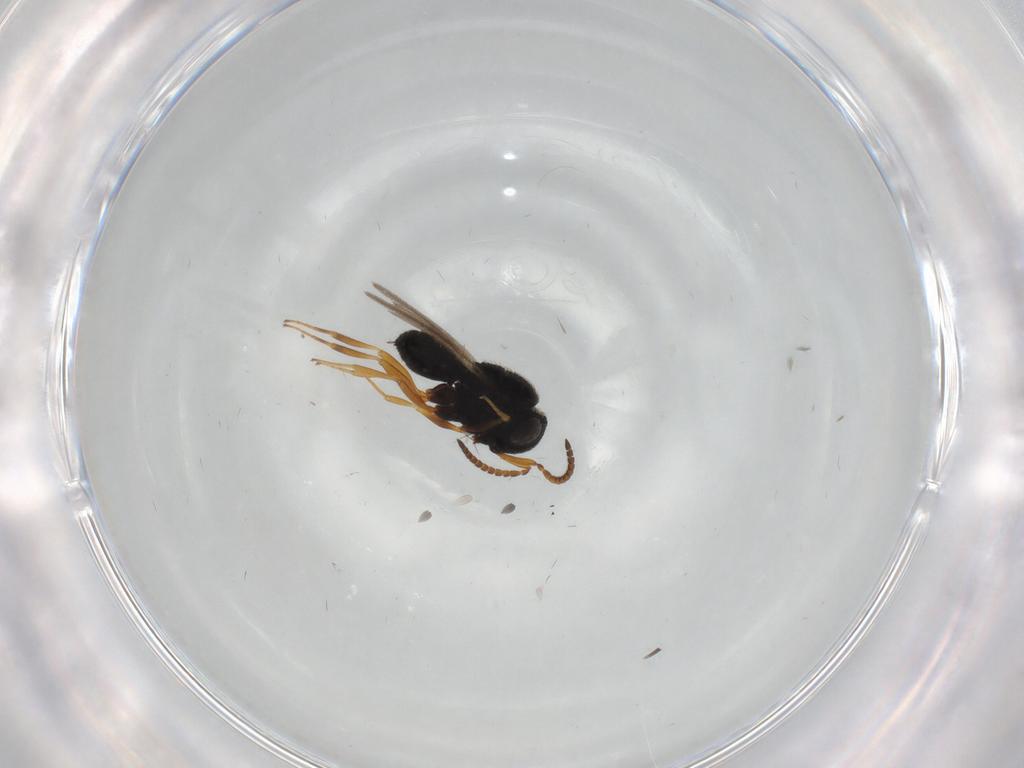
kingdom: Animalia
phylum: Arthropoda
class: Insecta
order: Hymenoptera
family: Scelionidae
